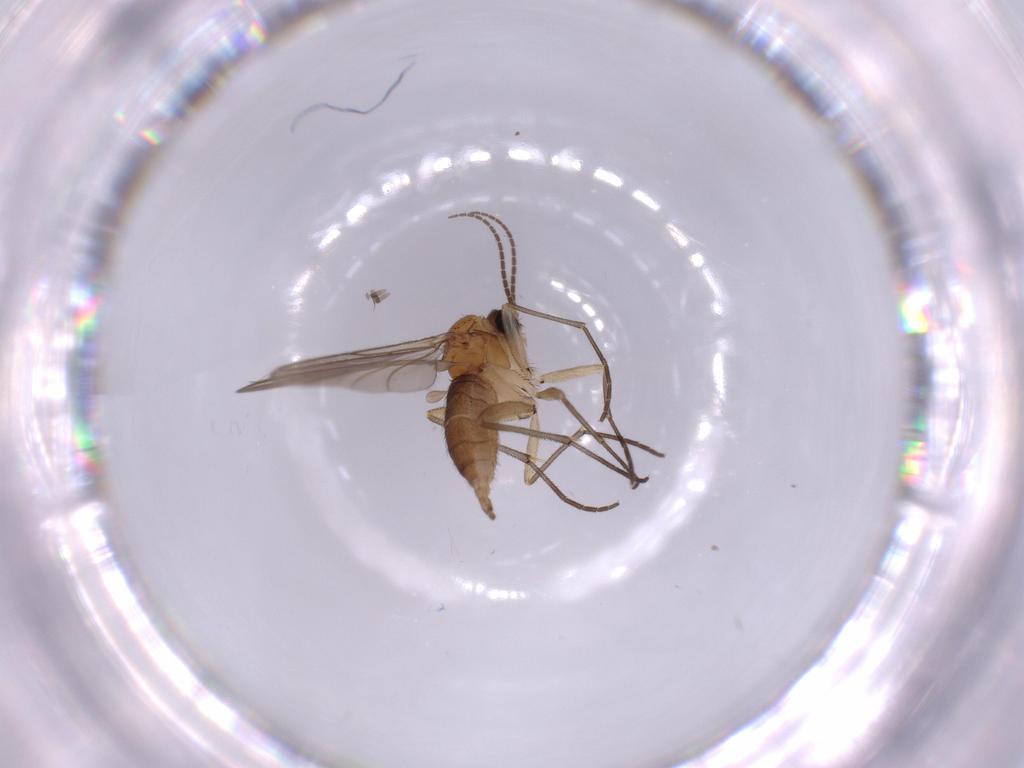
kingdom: Animalia
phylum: Arthropoda
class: Insecta
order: Diptera
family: Sciaridae
